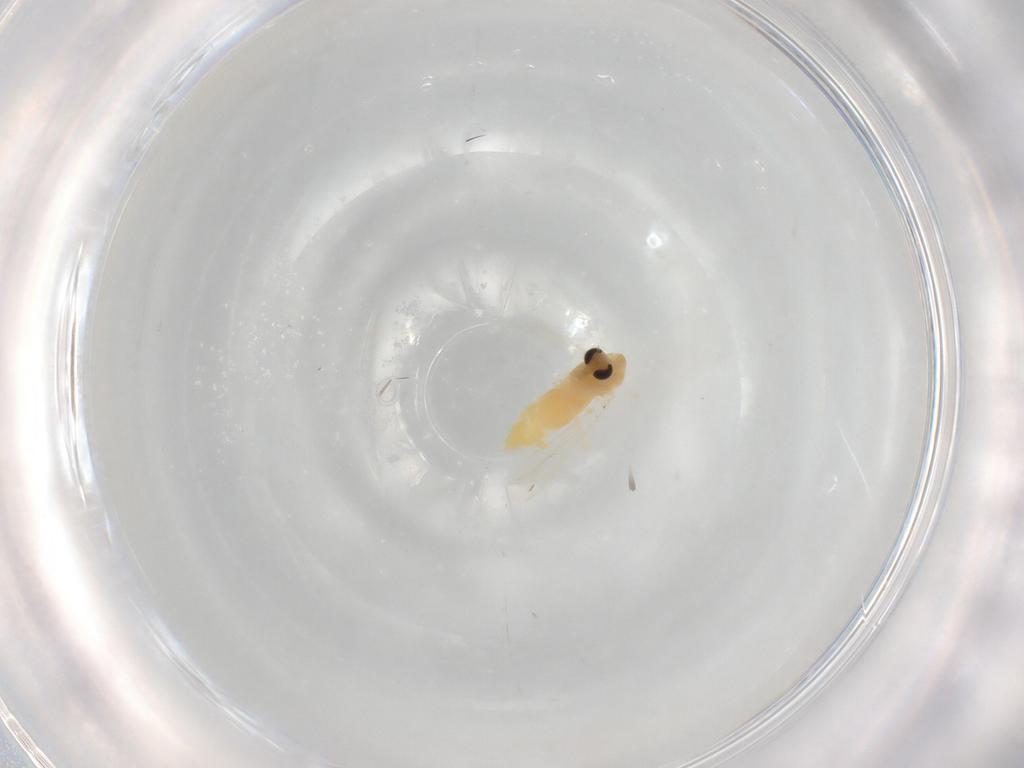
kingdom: Animalia
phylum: Arthropoda
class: Insecta
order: Diptera
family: Chironomidae
